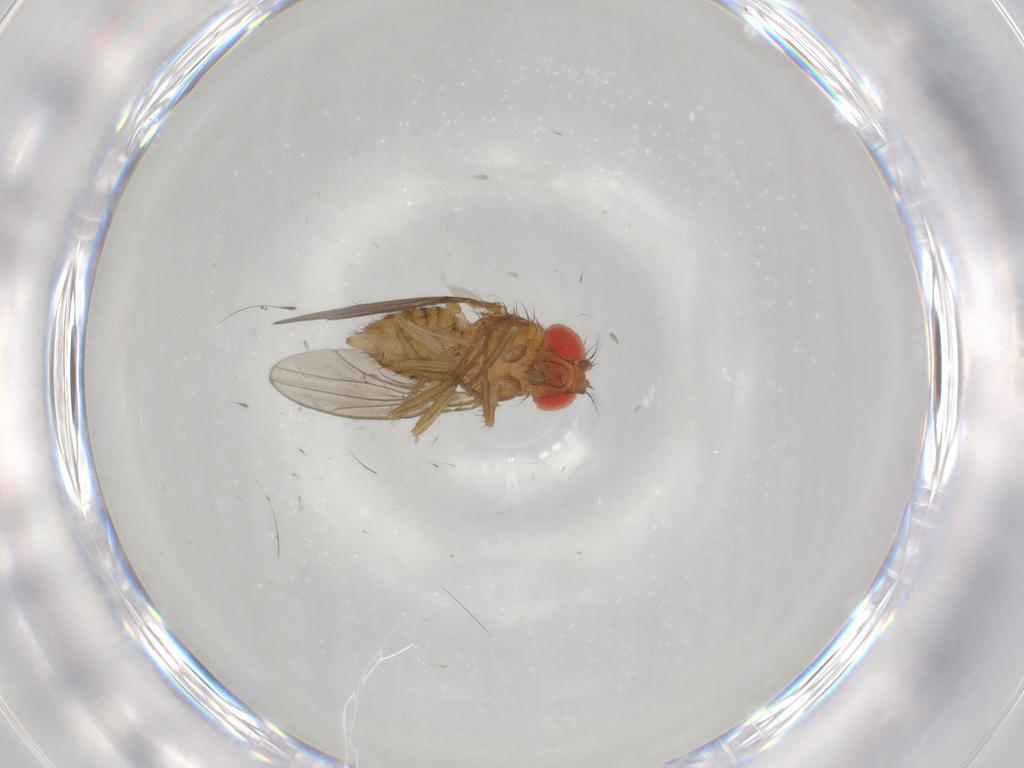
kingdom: Animalia
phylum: Arthropoda
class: Insecta
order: Diptera
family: Drosophilidae
